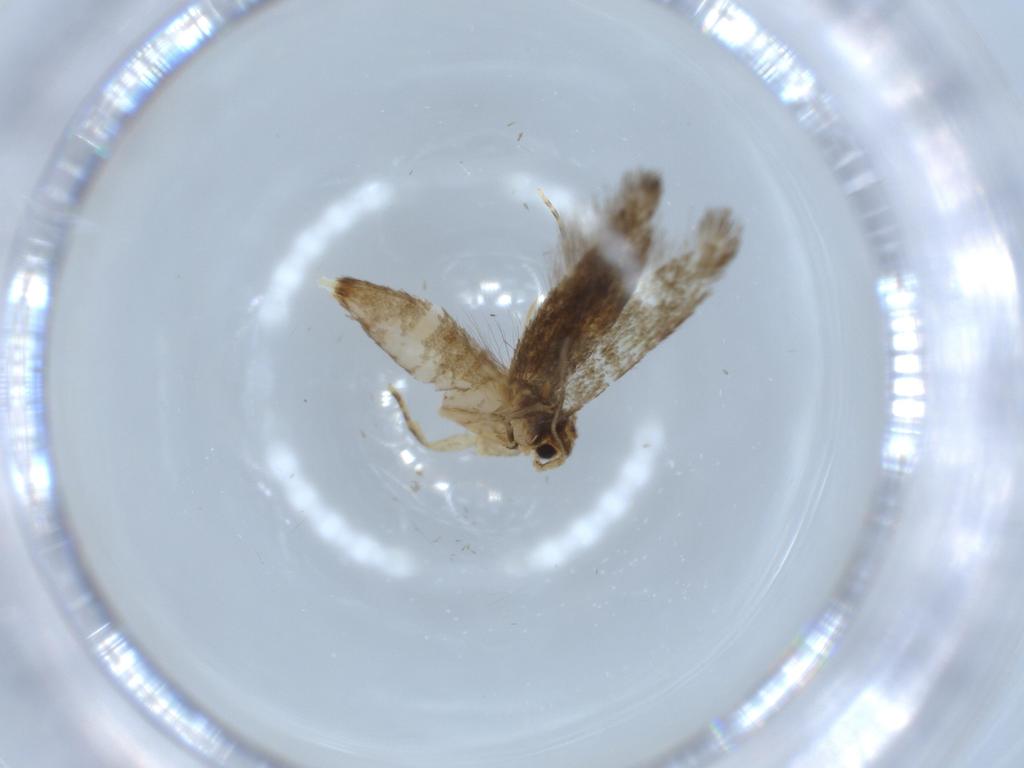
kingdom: Animalia
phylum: Arthropoda
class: Insecta
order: Lepidoptera
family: Tineidae
